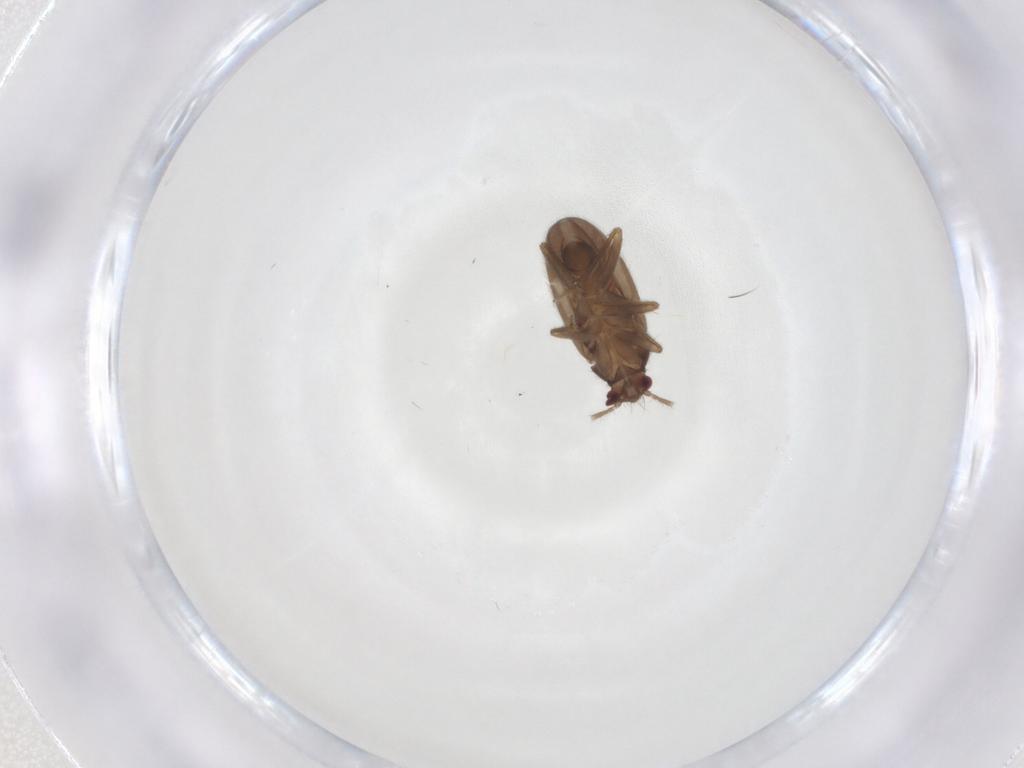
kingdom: Animalia
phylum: Arthropoda
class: Insecta
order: Hemiptera
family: Ceratocombidae
